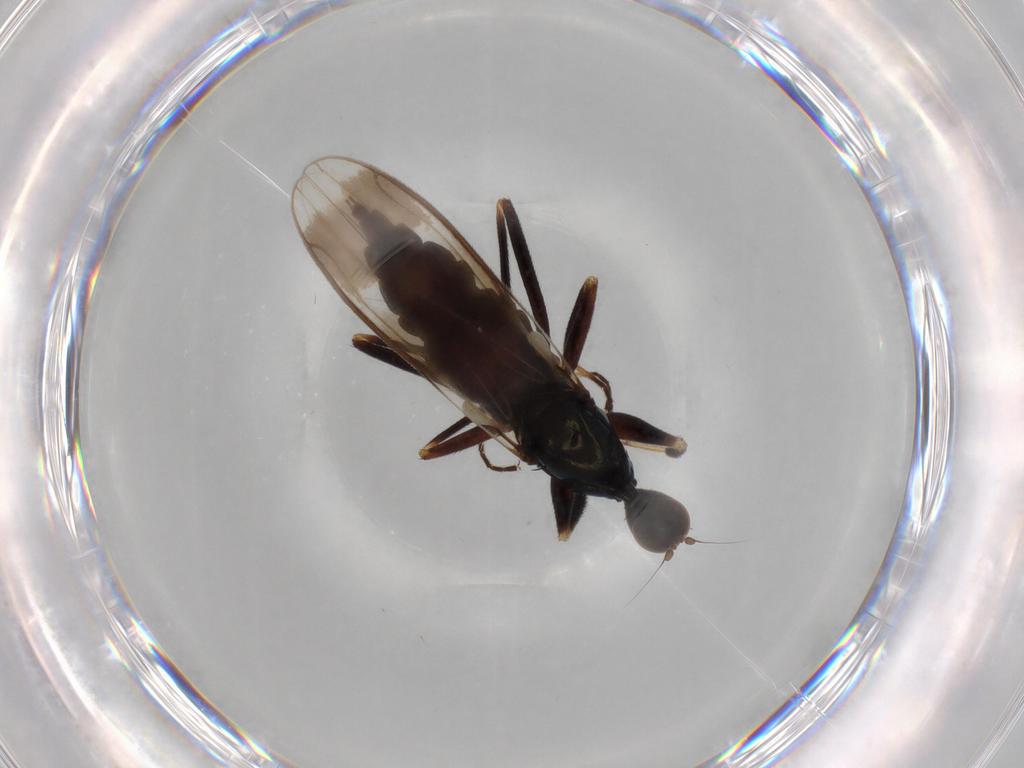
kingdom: Animalia
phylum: Arthropoda
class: Insecta
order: Diptera
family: Hybotidae
